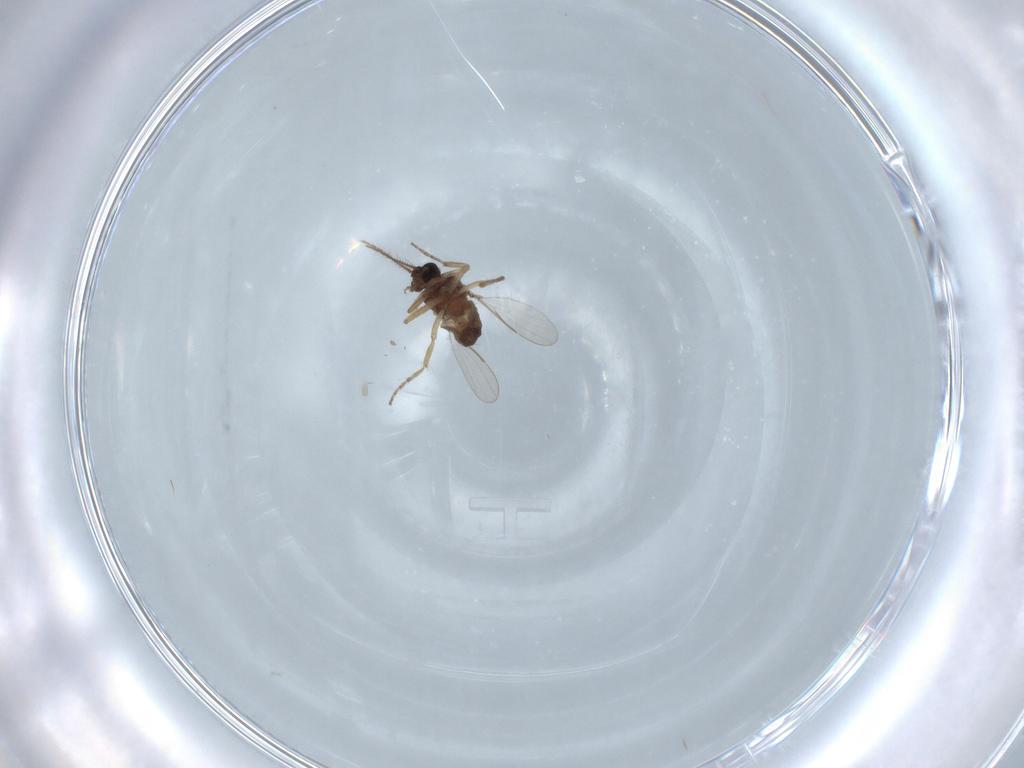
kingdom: Animalia
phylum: Arthropoda
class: Insecta
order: Diptera
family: Ceratopogonidae
